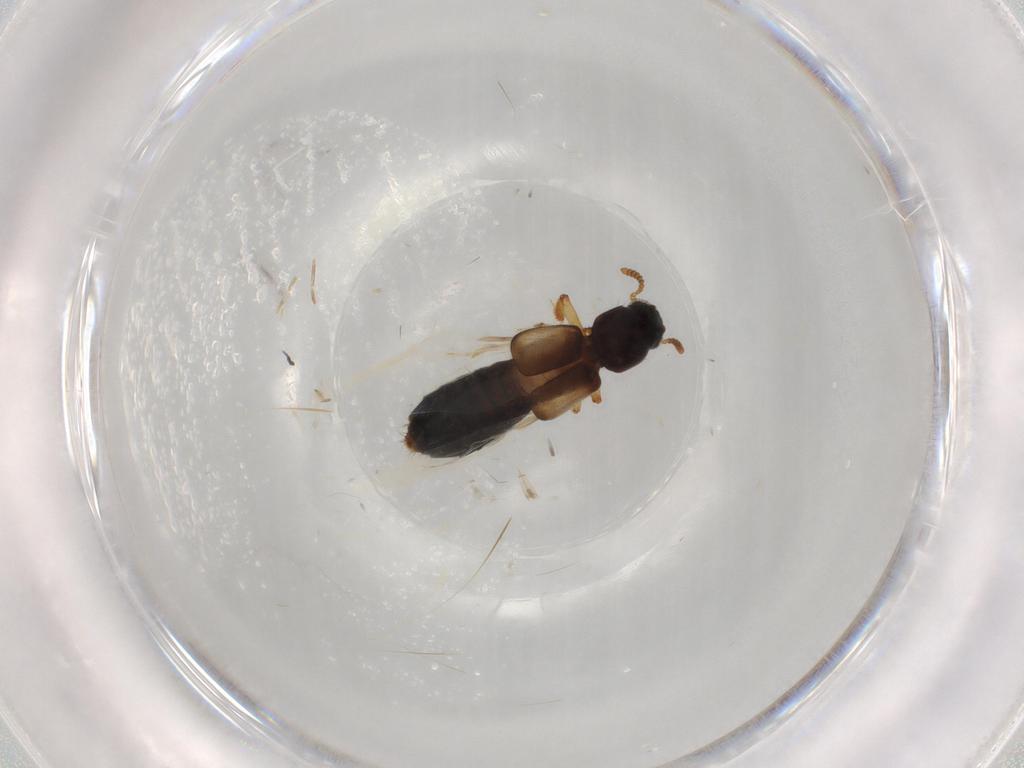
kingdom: Animalia
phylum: Arthropoda
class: Insecta
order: Coleoptera
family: Staphylinidae
